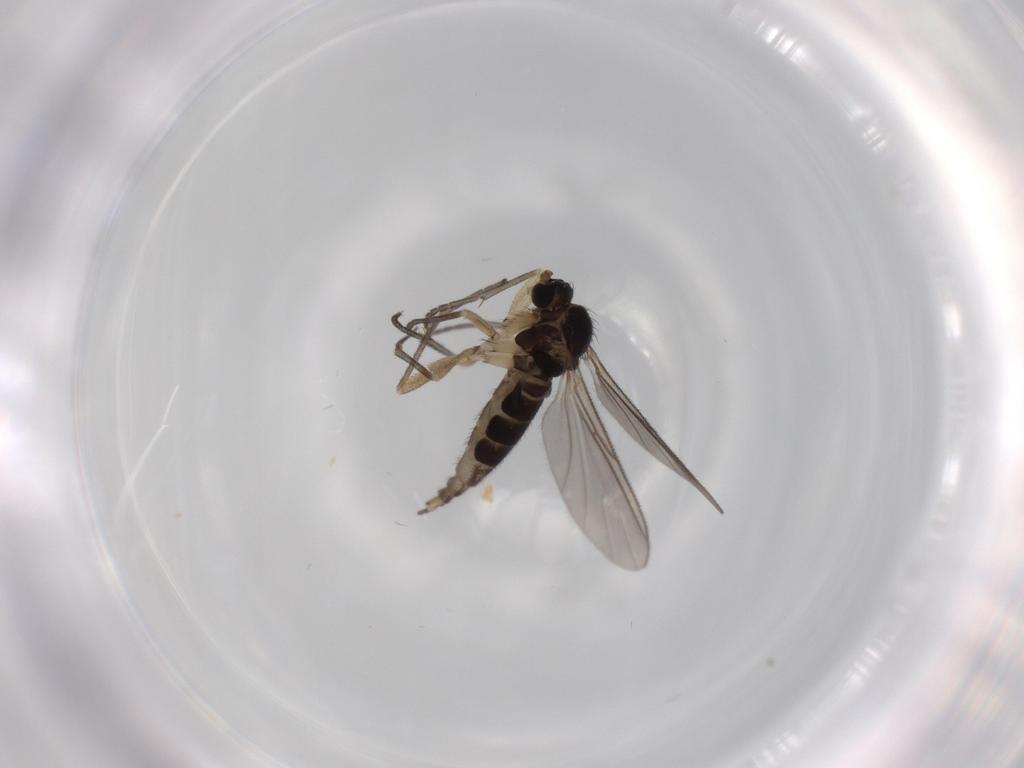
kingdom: Animalia
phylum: Arthropoda
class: Insecta
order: Diptera
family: Sciaridae
